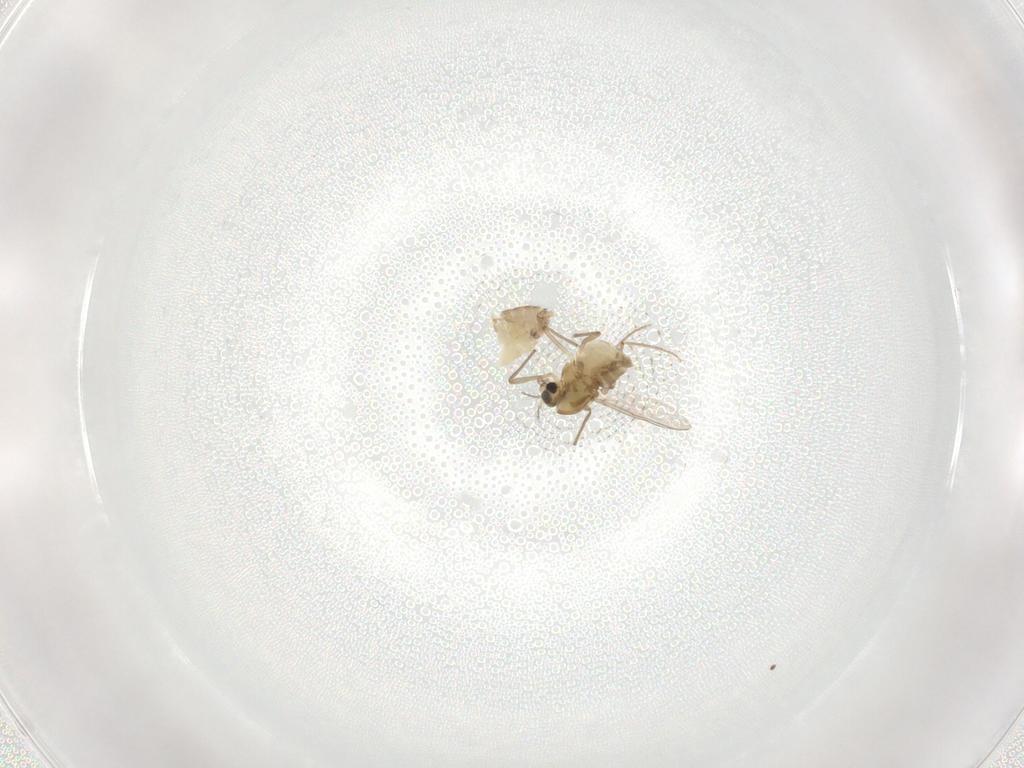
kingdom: Animalia
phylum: Arthropoda
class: Insecta
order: Diptera
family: Chironomidae
